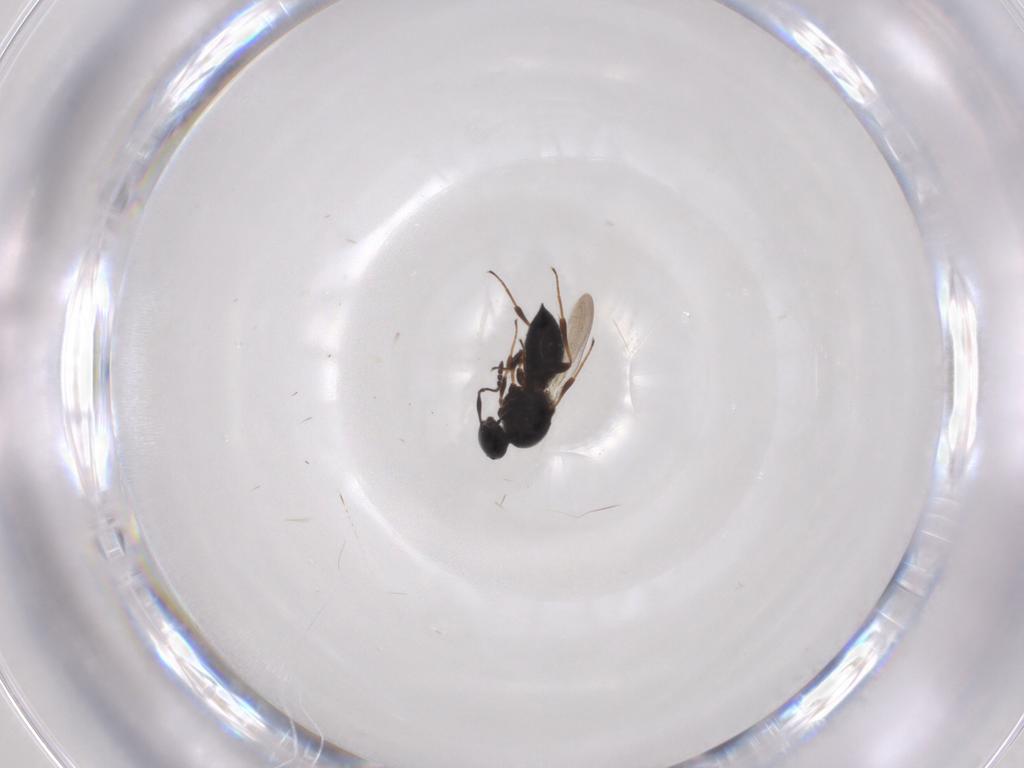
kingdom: Animalia
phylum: Arthropoda
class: Insecta
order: Hymenoptera
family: Platygastridae
